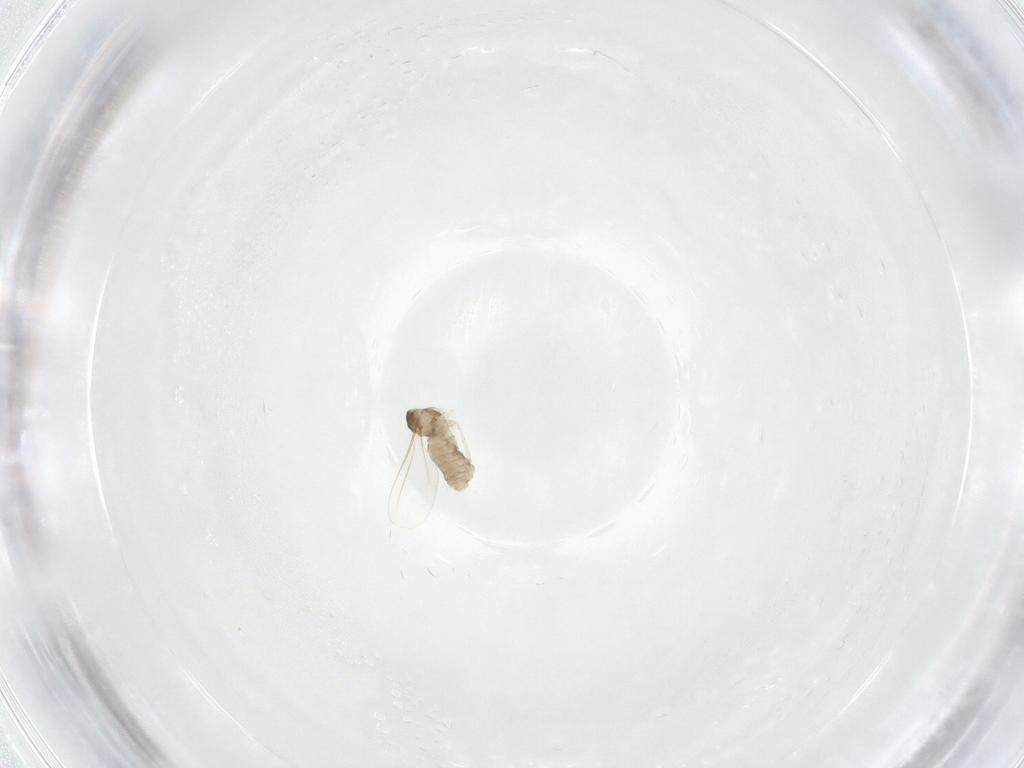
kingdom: Animalia
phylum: Arthropoda
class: Insecta
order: Diptera
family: Cecidomyiidae
